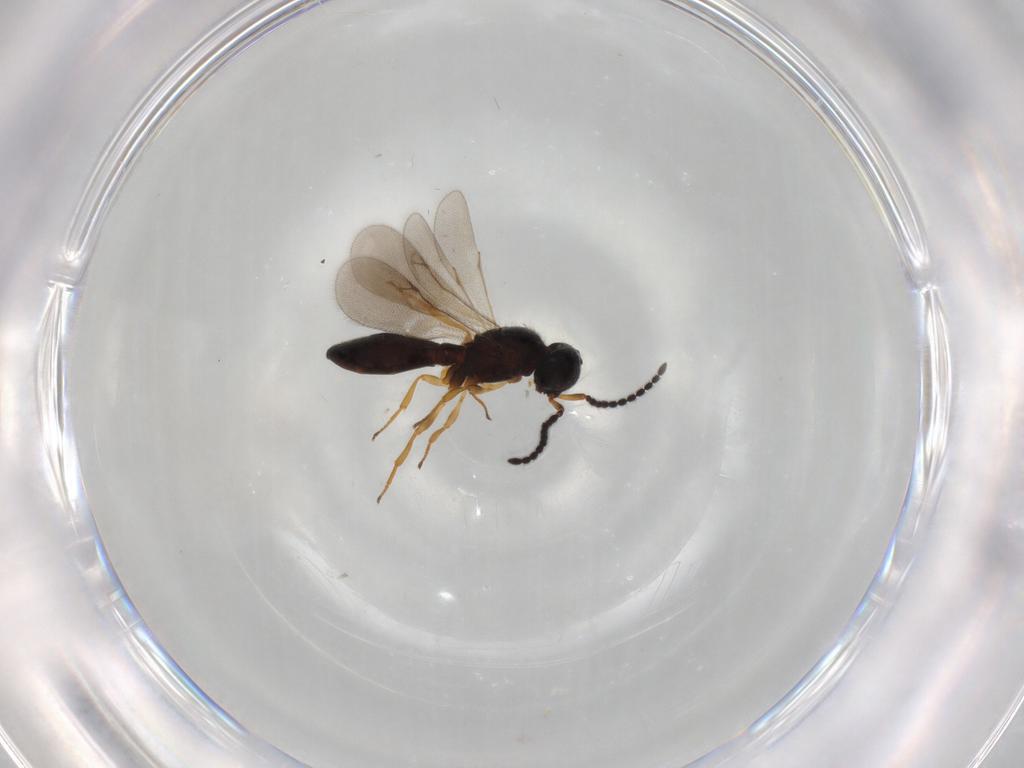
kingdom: Animalia
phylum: Arthropoda
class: Insecta
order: Hymenoptera
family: Scelionidae
